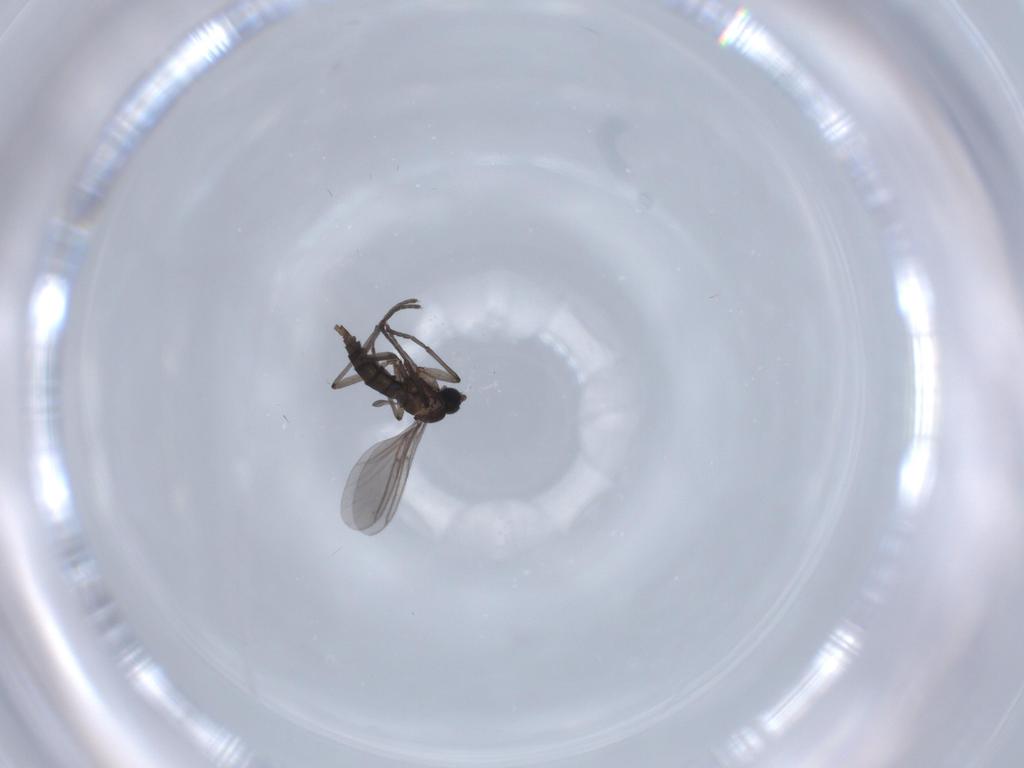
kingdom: Animalia
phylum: Arthropoda
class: Insecta
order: Diptera
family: Sciaridae
